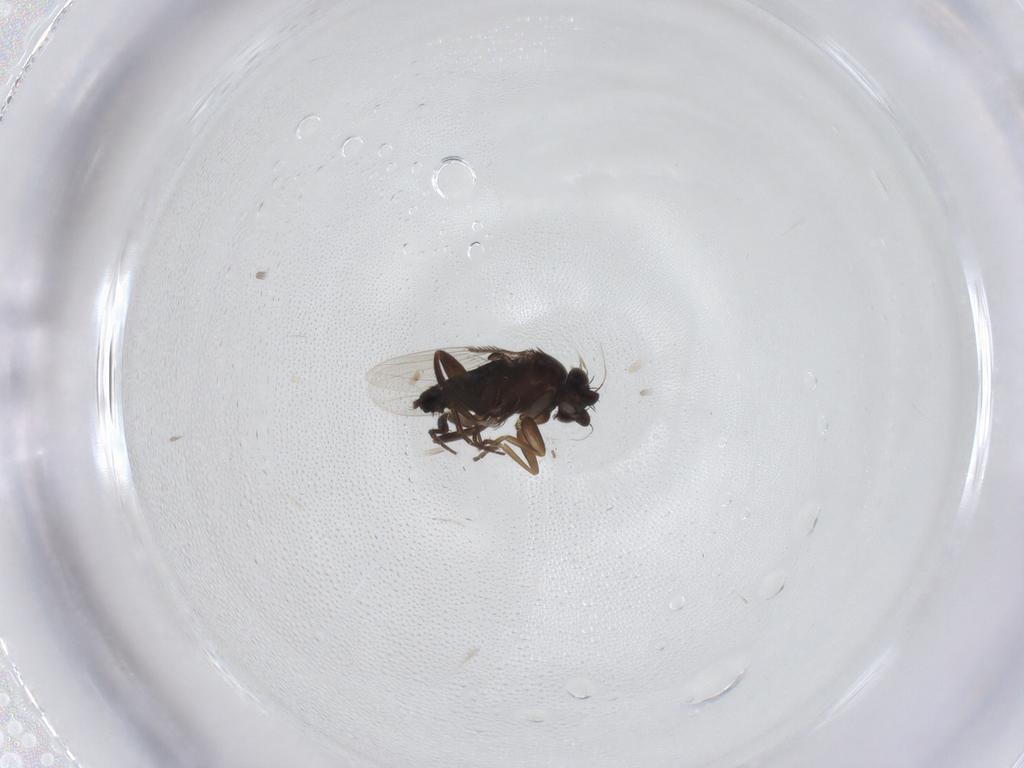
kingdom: Animalia
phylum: Arthropoda
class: Insecta
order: Diptera
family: Phoridae
